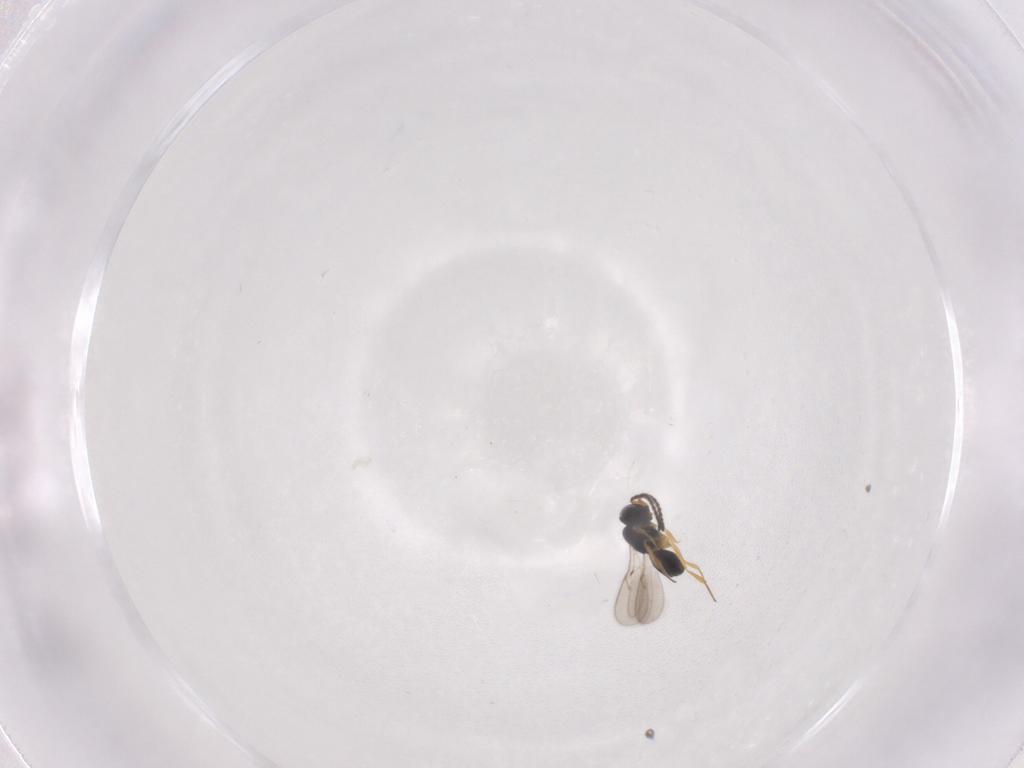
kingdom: Animalia
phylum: Arthropoda
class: Insecta
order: Hymenoptera
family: Scelionidae
